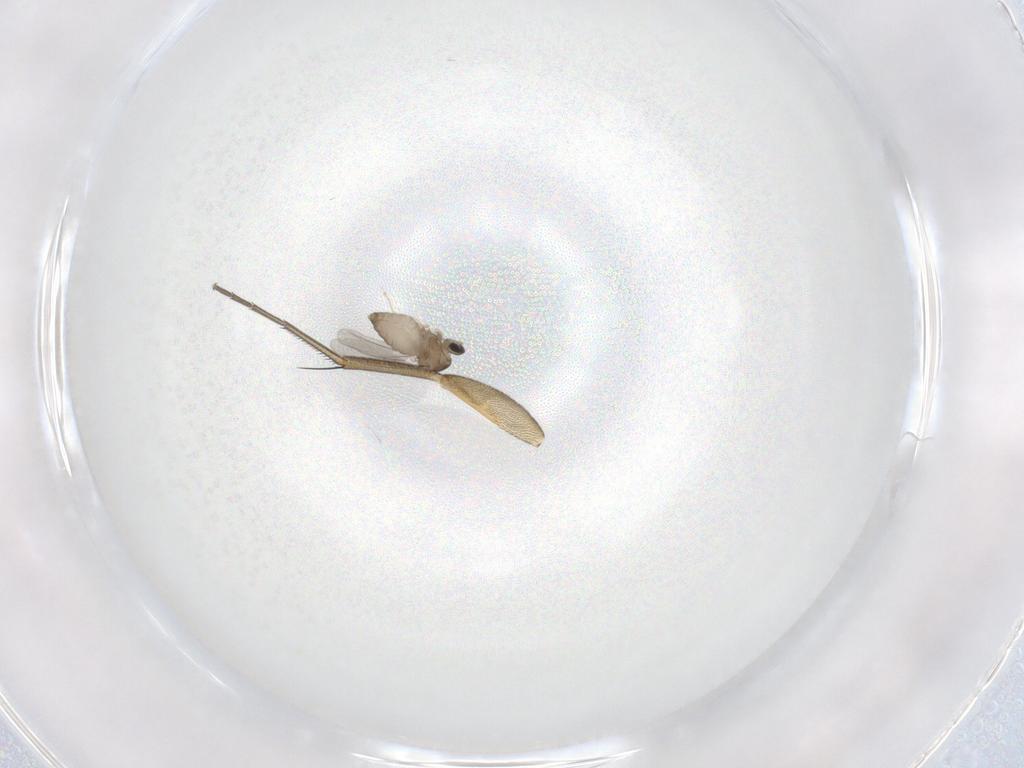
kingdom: Animalia
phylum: Arthropoda
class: Insecta
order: Diptera
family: Cecidomyiidae
